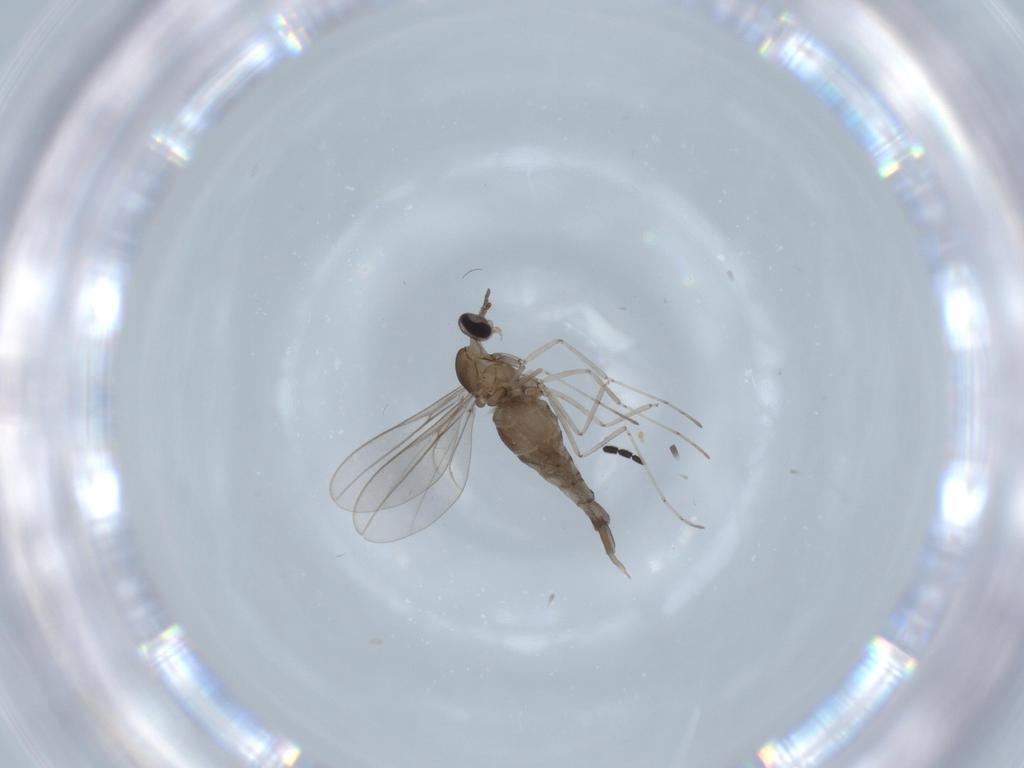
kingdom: Animalia
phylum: Arthropoda
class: Insecta
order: Diptera
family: Cecidomyiidae
